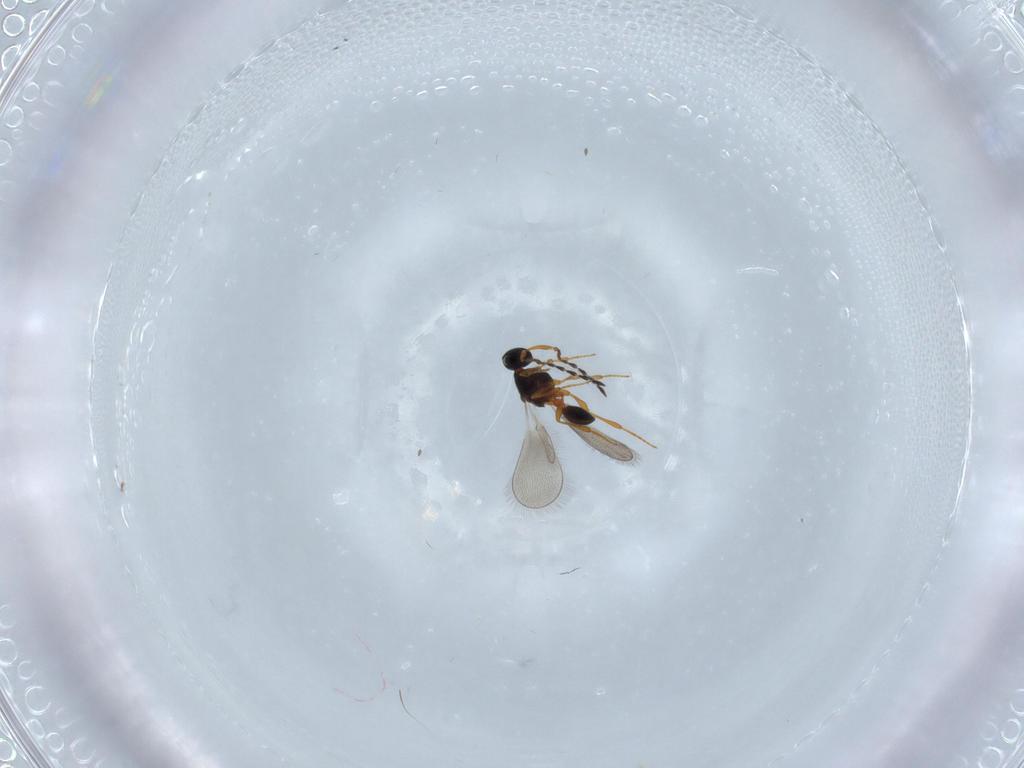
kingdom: Animalia
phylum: Arthropoda
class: Insecta
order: Hymenoptera
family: Platygastridae
